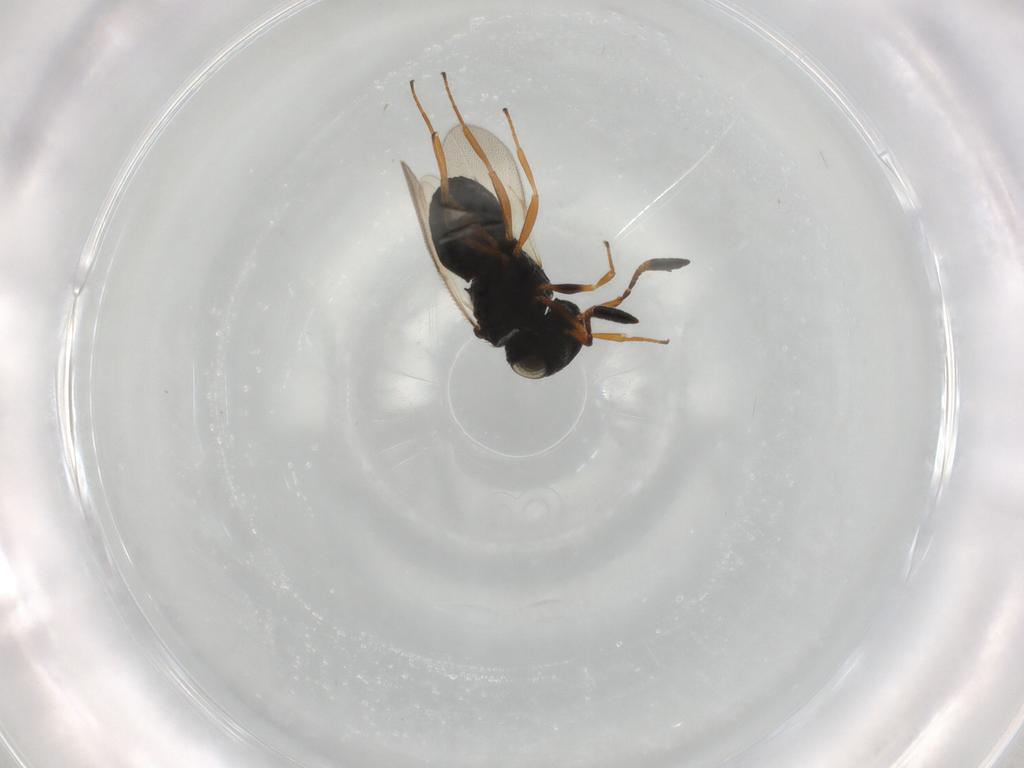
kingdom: Animalia
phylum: Arthropoda
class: Insecta
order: Hymenoptera
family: Scelionidae
